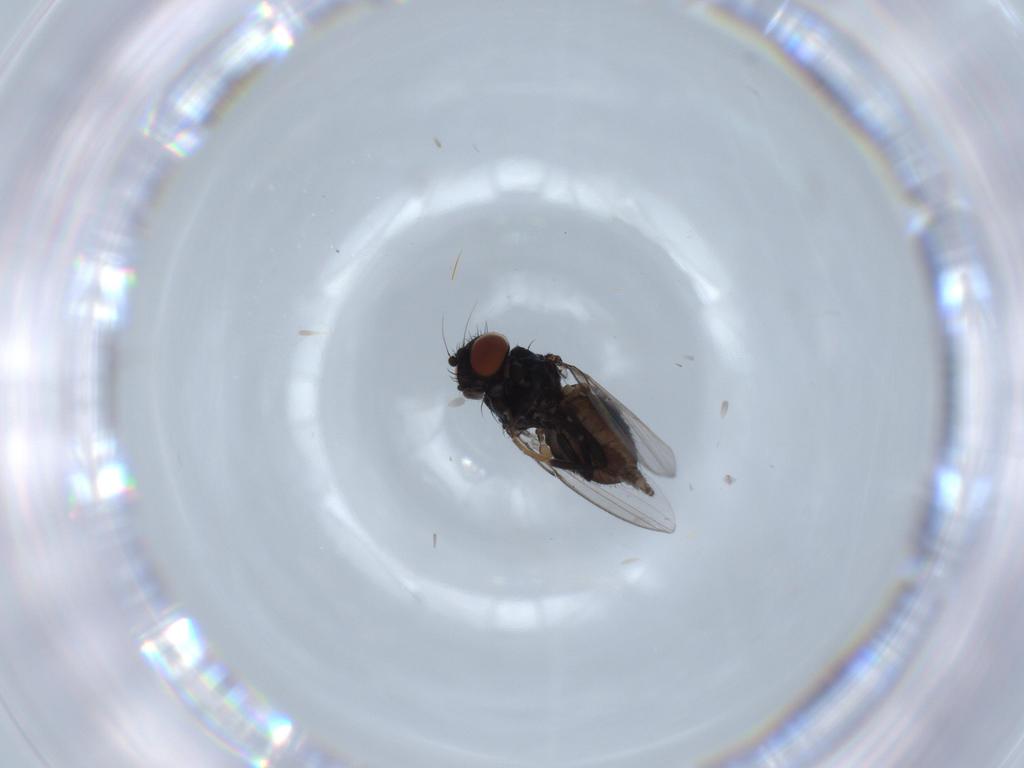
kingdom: Animalia
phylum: Arthropoda
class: Insecta
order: Diptera
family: Milichiidae
